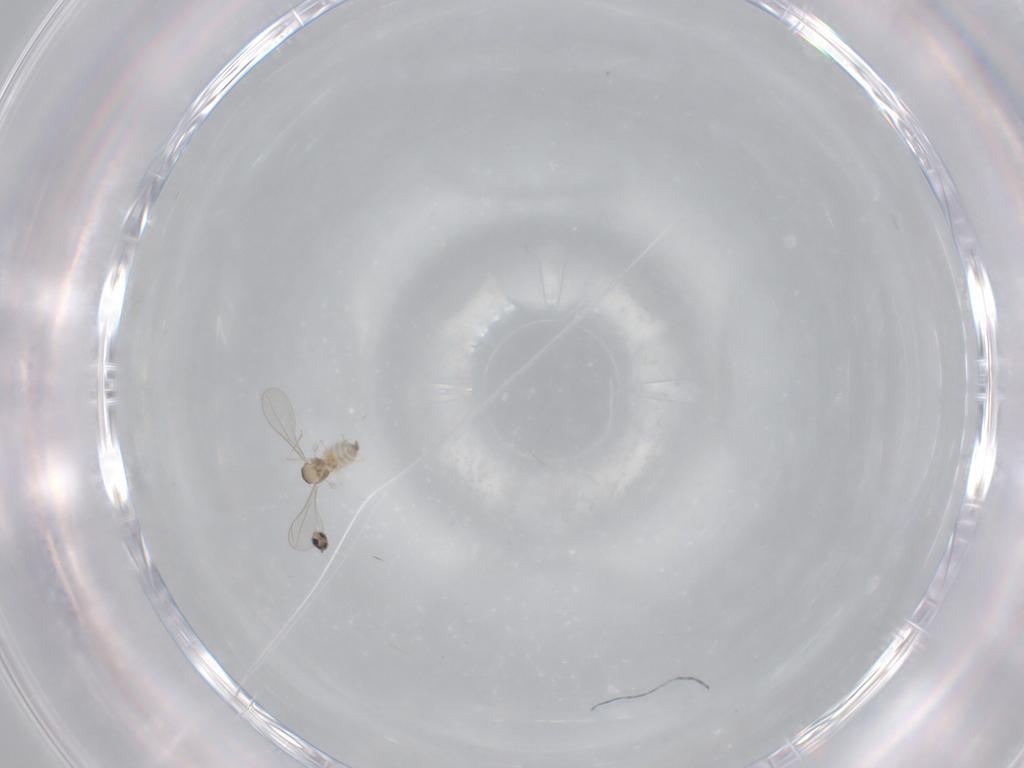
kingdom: Animalia
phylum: Arthropoda
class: Insecta
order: Diptera
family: Cecidomyiidae
